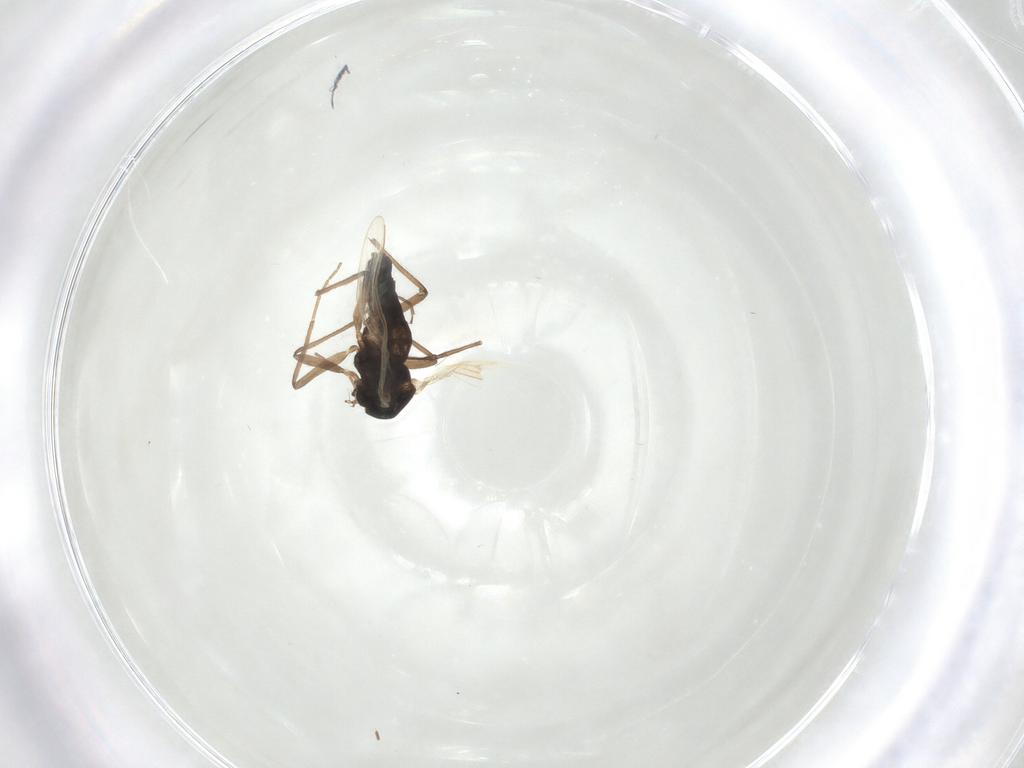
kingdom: Animalia
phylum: Arthropoda
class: Insecta
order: Diptera
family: Chironomidae
